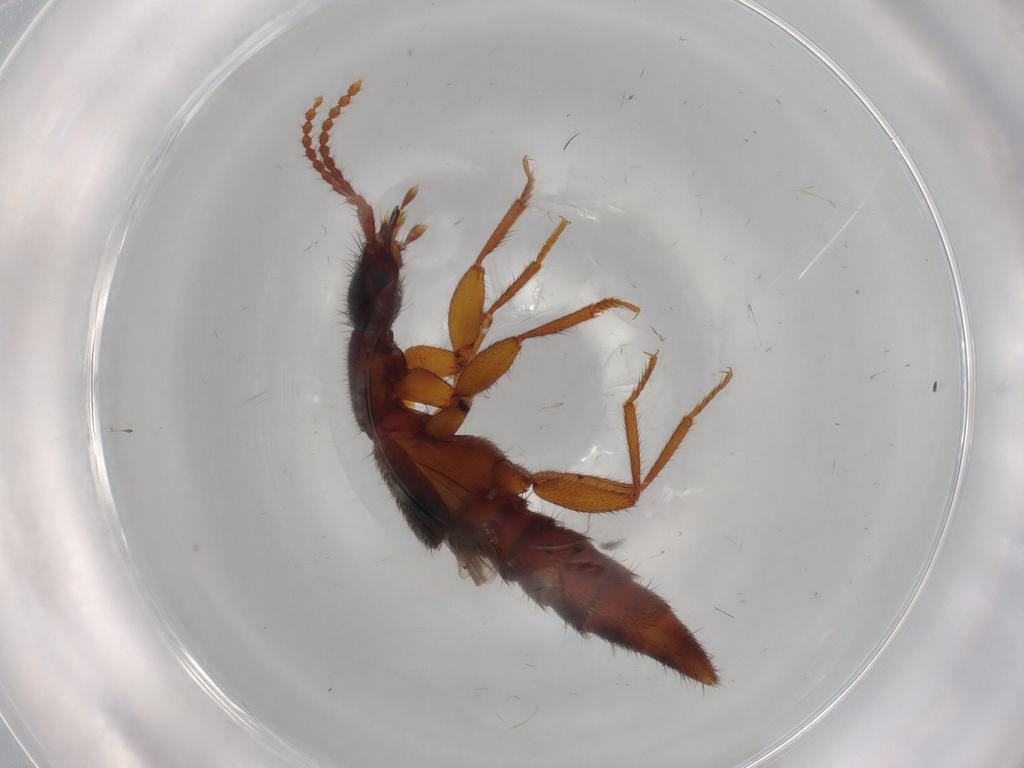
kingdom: Animalia
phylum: Arthropoda
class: Insecta
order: Coleoptera
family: Staphylinidae
